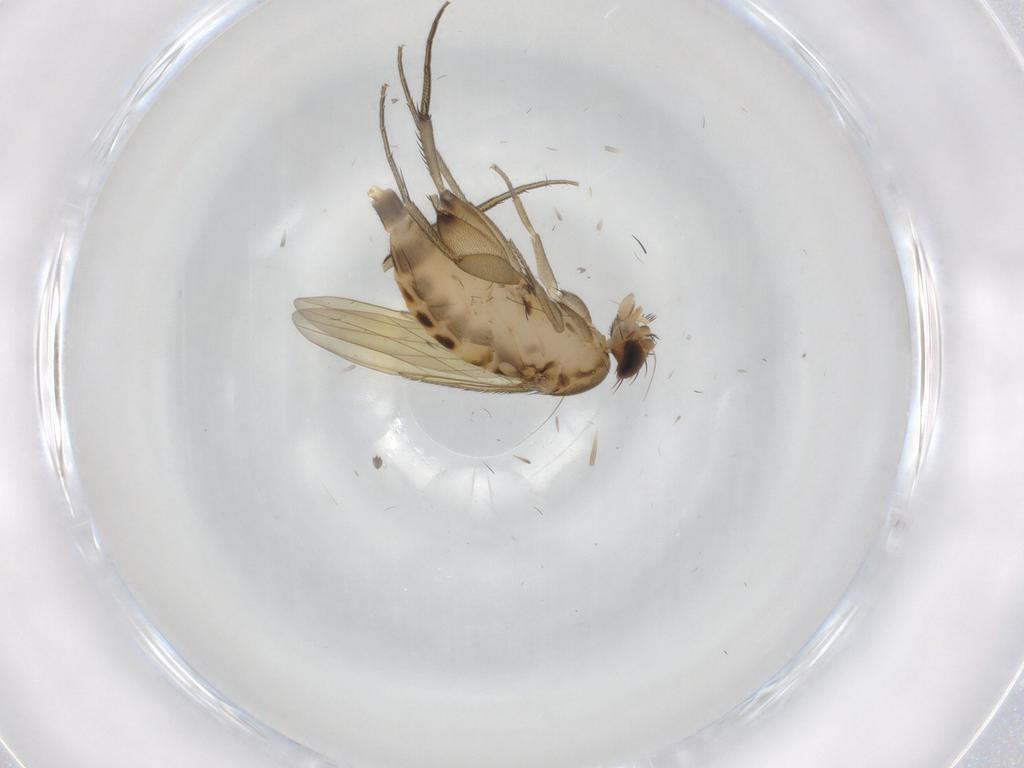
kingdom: Animalia
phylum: Arthropoda
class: Insecta
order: Diptera
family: Phoridae
